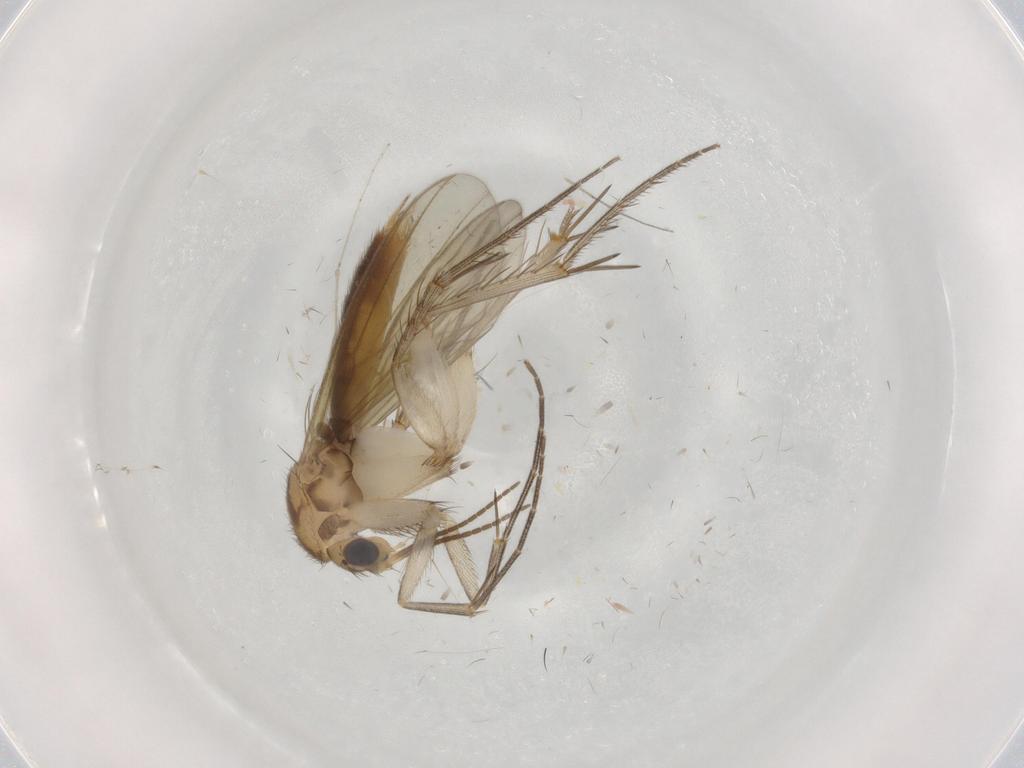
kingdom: Animalia
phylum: Arthropoda
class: Insecta
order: Diptera
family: Mycetophilidae
